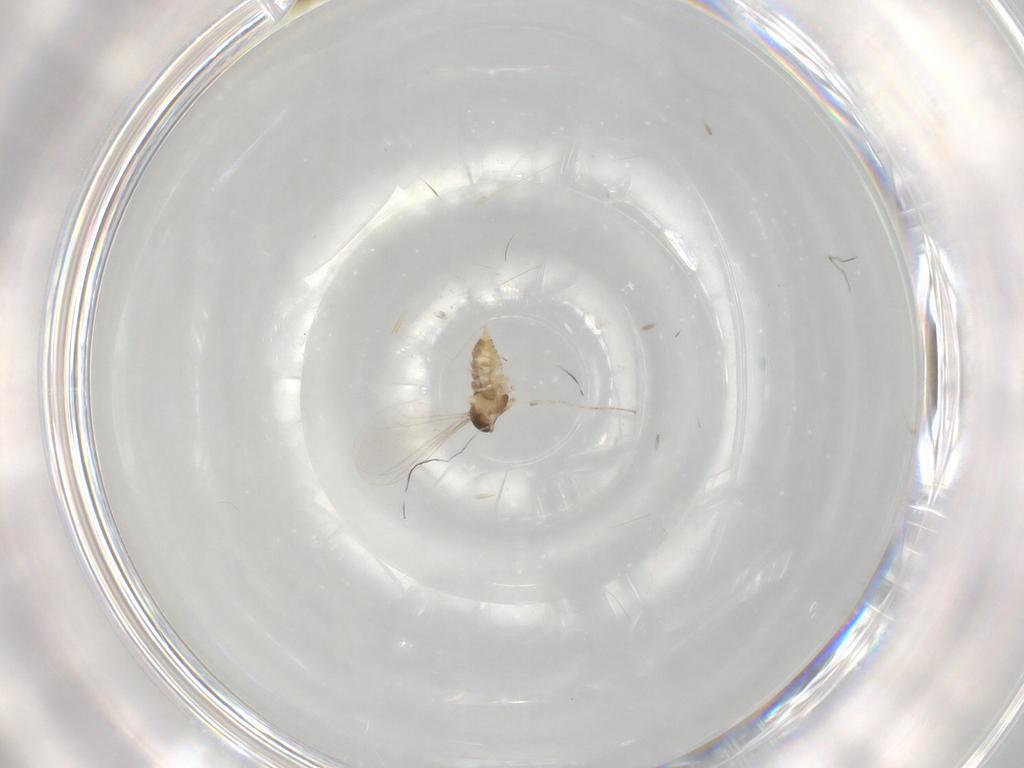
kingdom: Animalia
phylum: Arthropoda
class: Insecta
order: Diptera
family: Cecidomyiidae
